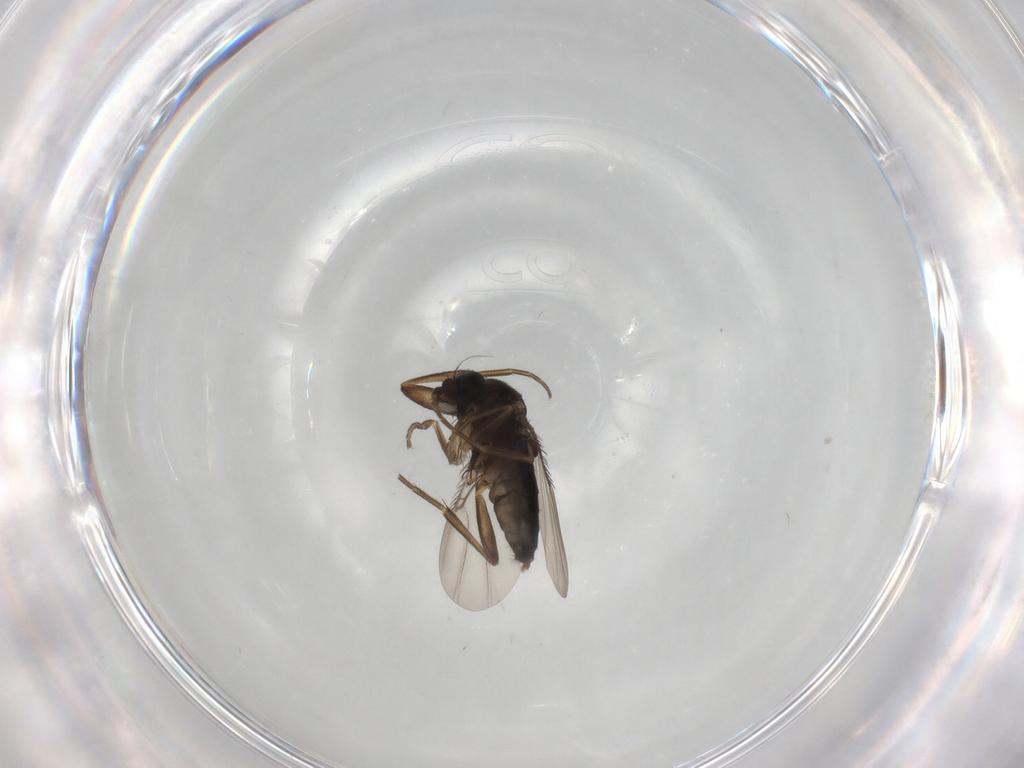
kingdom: Animalia
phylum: Arthropoda
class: Insecta
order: Diptera
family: Phoridae
